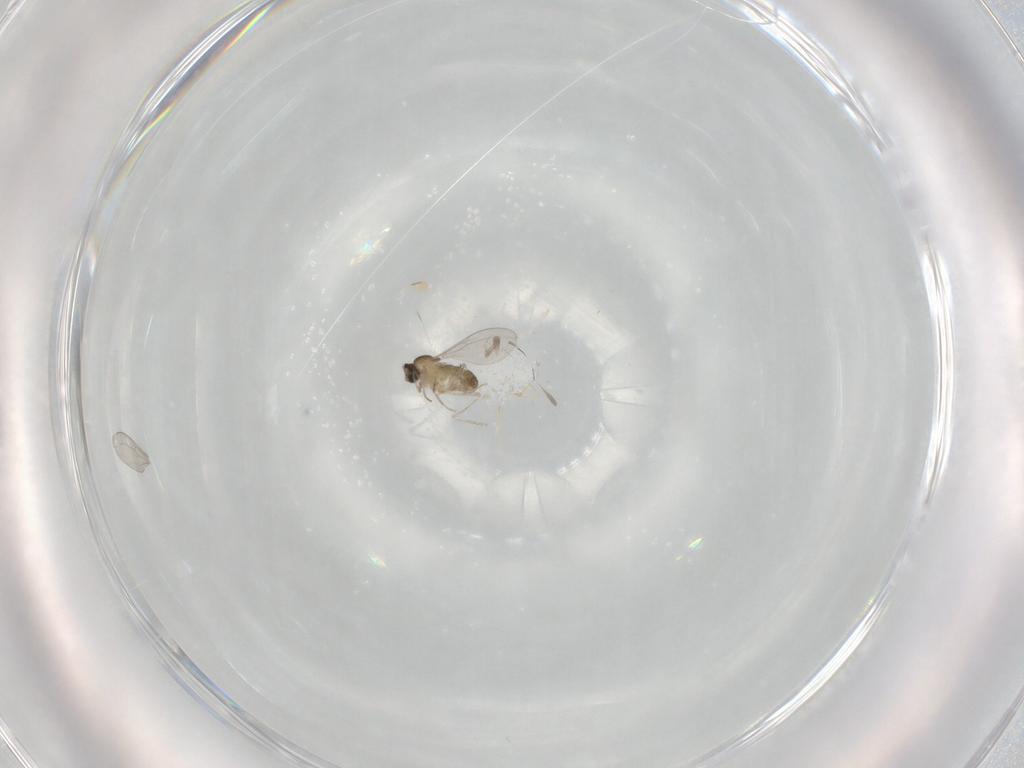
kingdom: Animalia
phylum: Arthropoda
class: Insecta
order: Diptera
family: Cecidomyiidae
